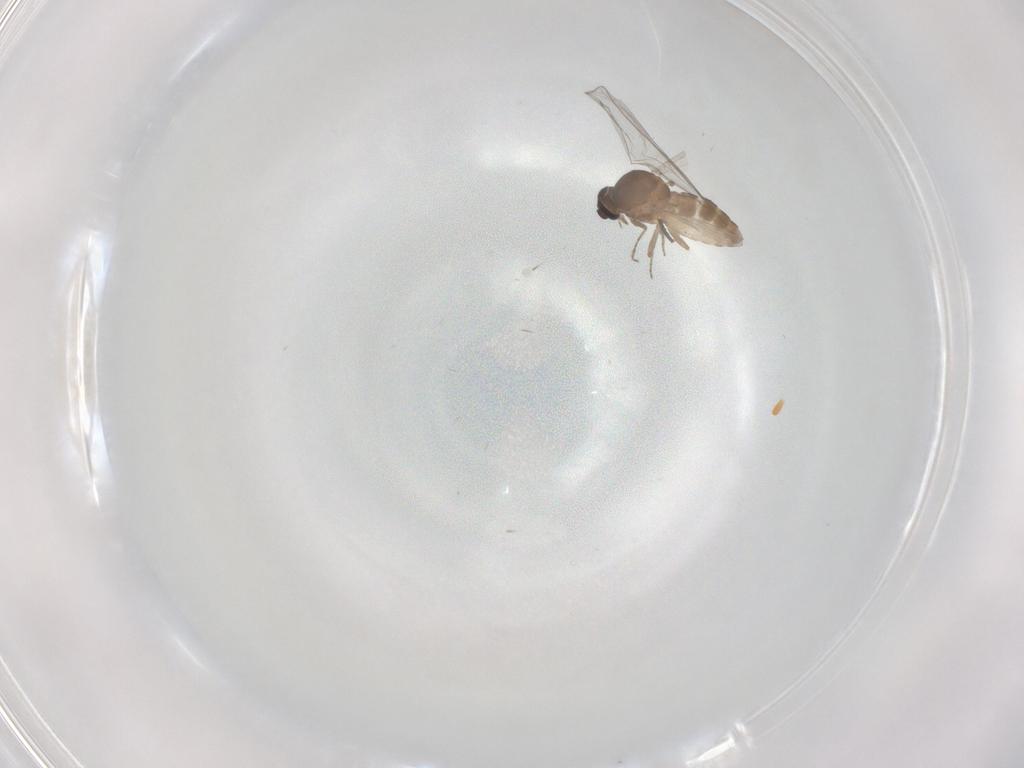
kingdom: Animalia
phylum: Arthropoda
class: Insecta
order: Diptera
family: Ceratopogonidae
